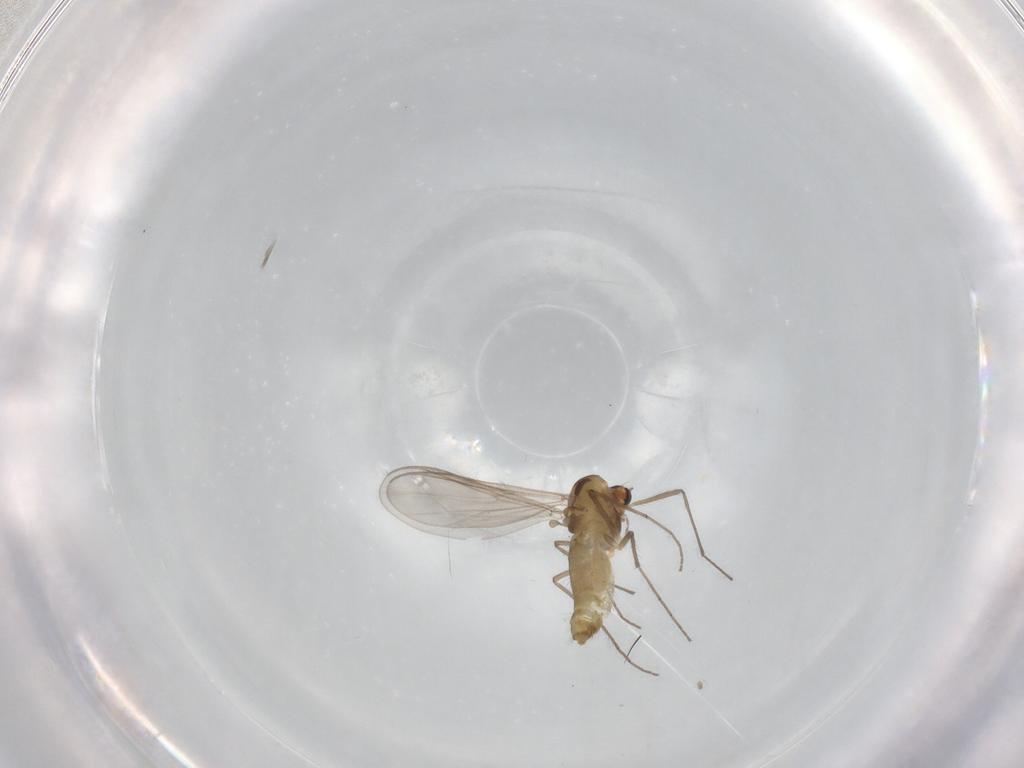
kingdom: Animalia
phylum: Arthropoda
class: Insecta
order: Diptera
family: Chironomidae
